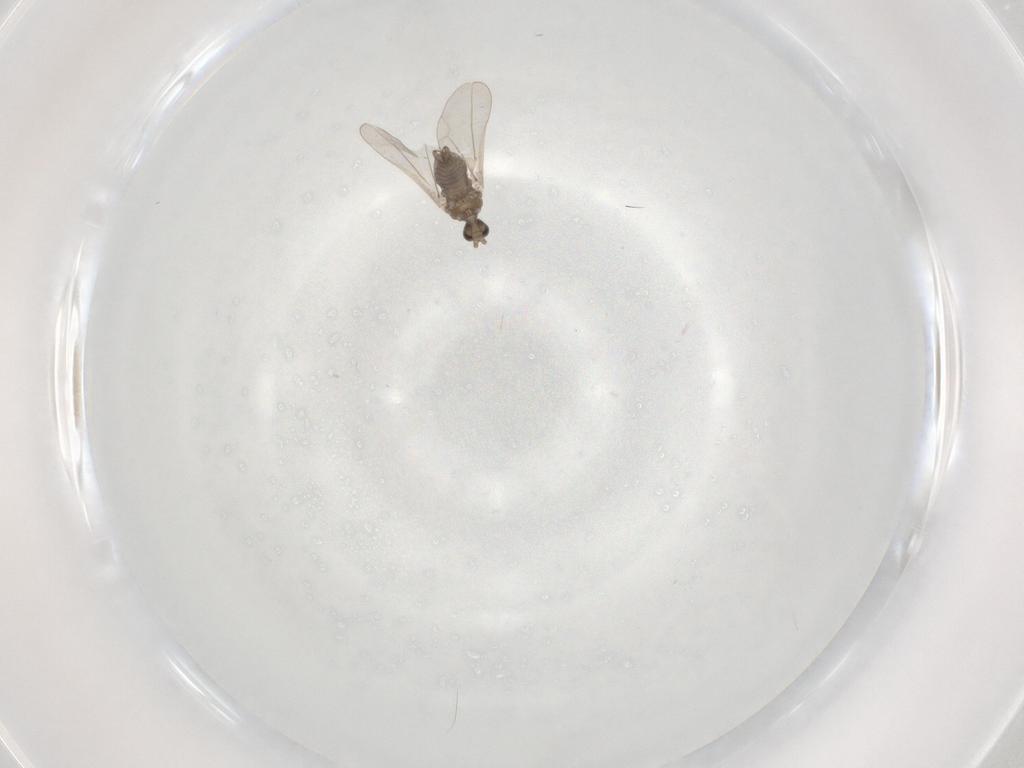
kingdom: Animalia
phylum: Arthropoda
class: Insecta
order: Diptera
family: Cecidomyiidae
